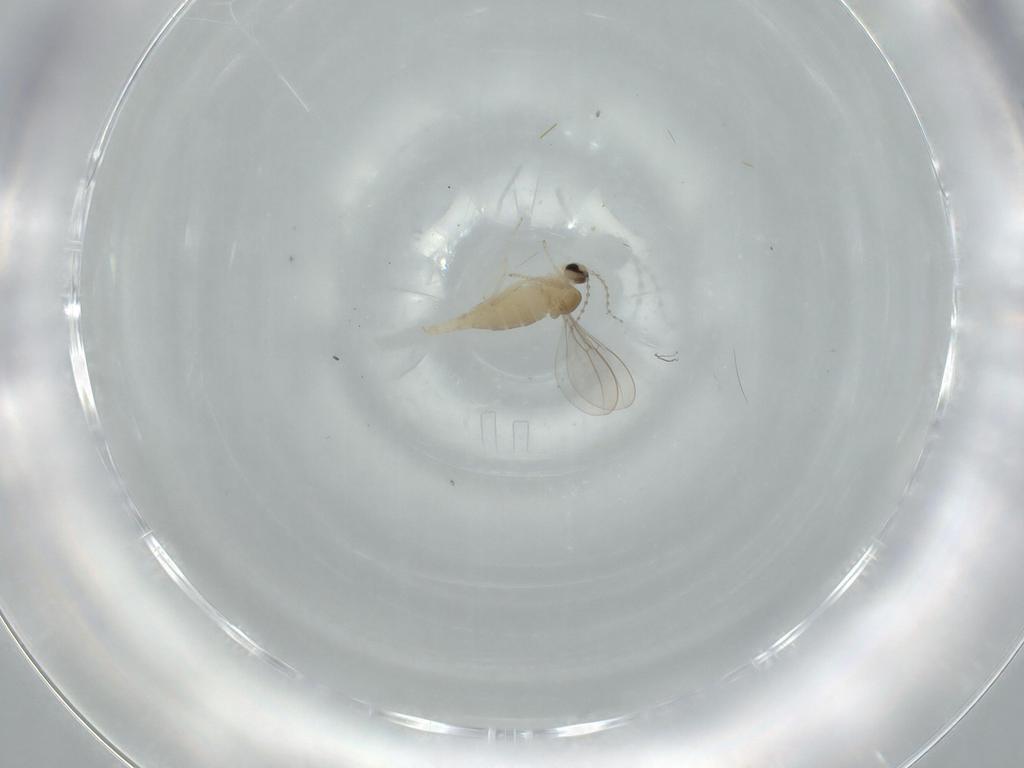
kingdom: Animalia
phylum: Arthropoda
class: Insecta
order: Diptera
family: Cecidomyiidae
